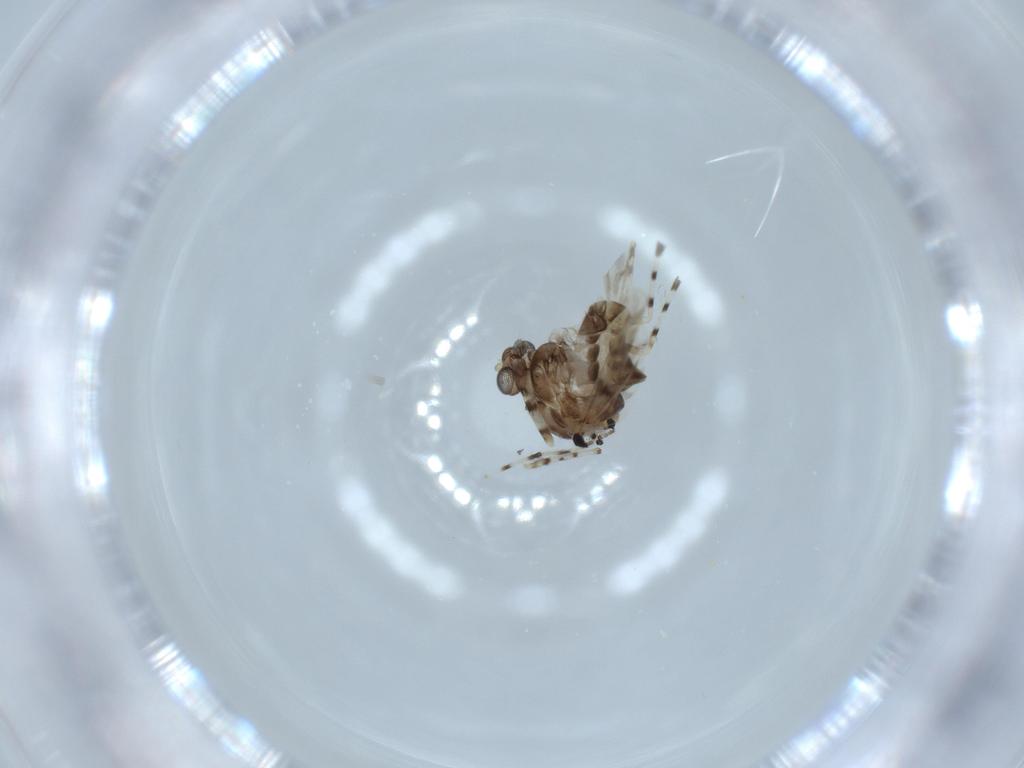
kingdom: Animalia
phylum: Arthropoda
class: Insecta
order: Diptera
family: Chironomidae
